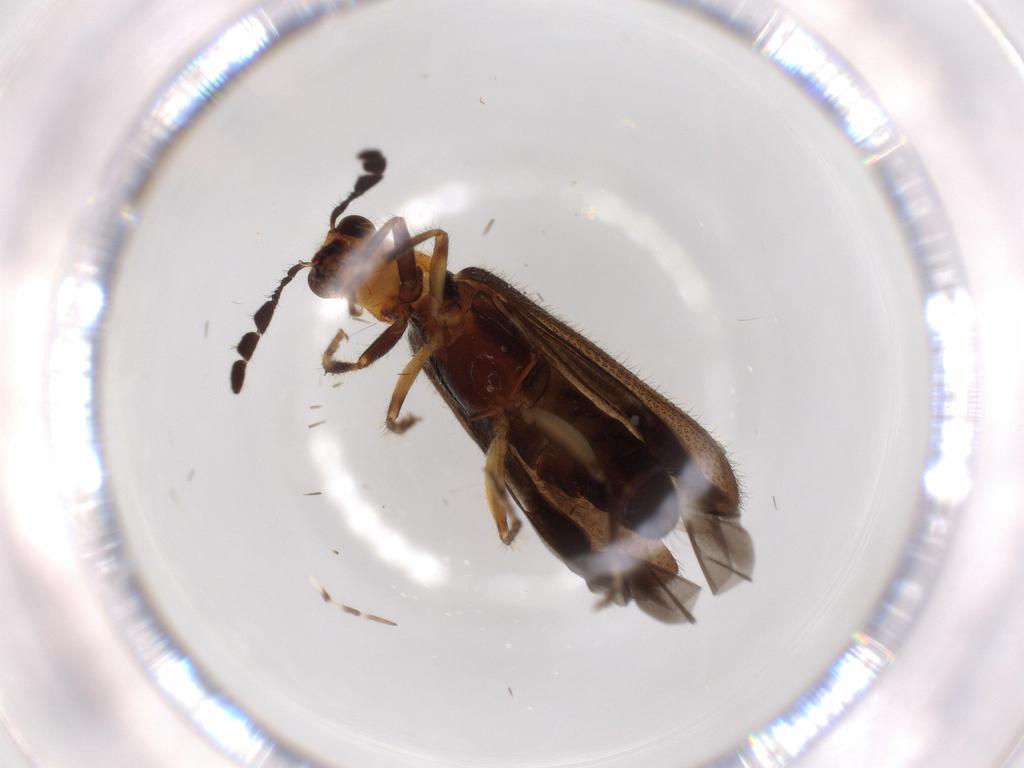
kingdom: Animalia
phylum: Arthropoda
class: Insecta
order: Coleoptera
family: Cleridae
